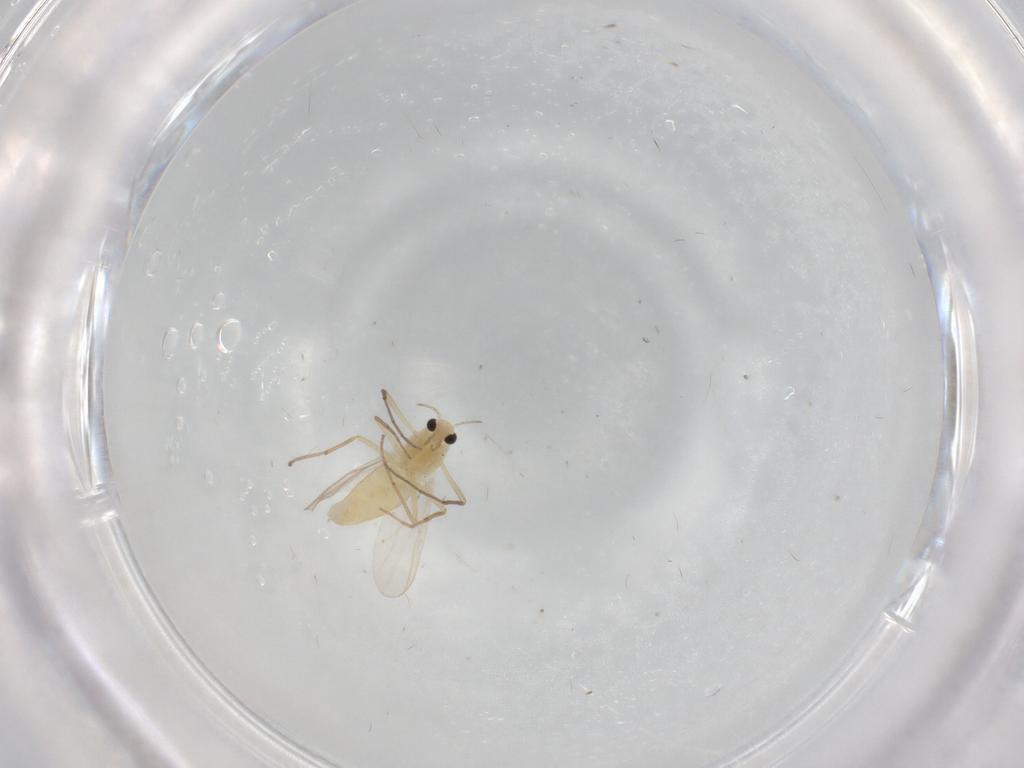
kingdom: Animalia
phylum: Arthropoda
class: Insecta
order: Diptera
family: Chironomidae
